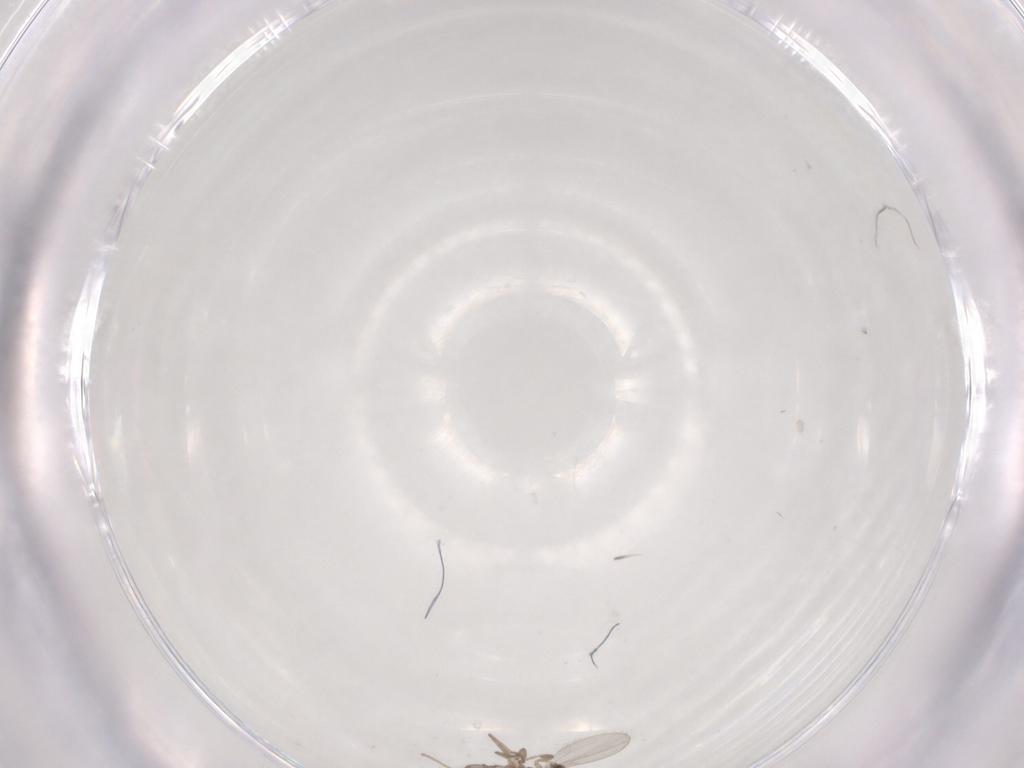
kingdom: Animalia
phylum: Arthropoda
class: Insecta
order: Diptera
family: Cecidomyiidae
